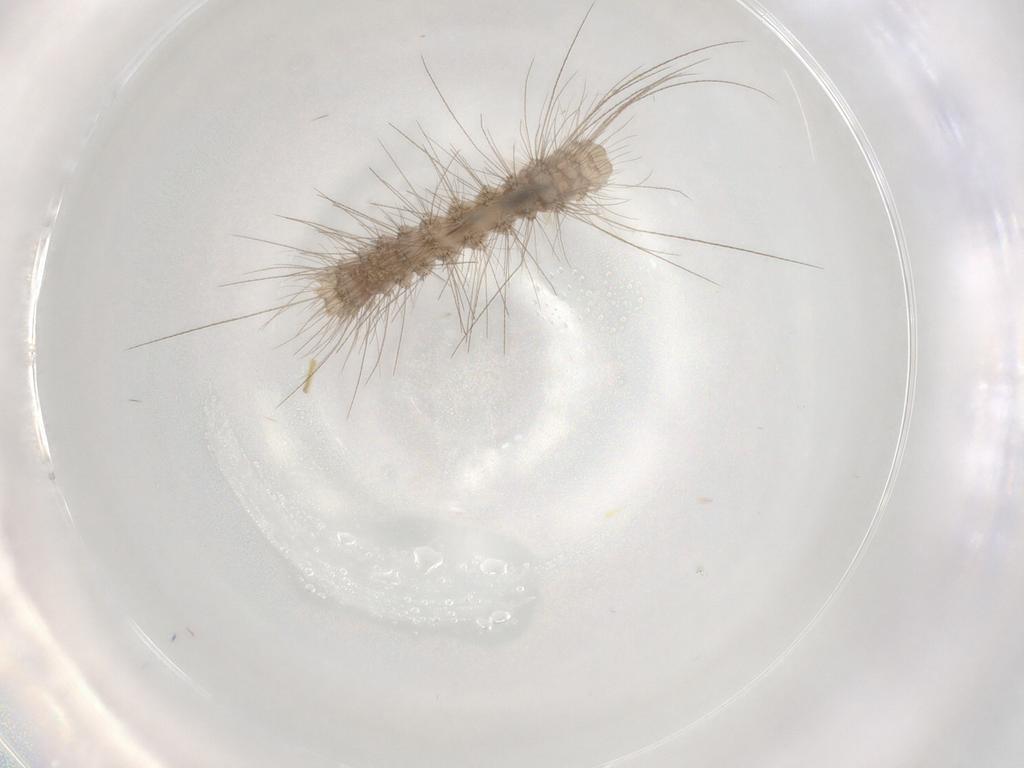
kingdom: Animalia
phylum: Arthropoda
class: Insecta
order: Lepidoptera
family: Erebidae
